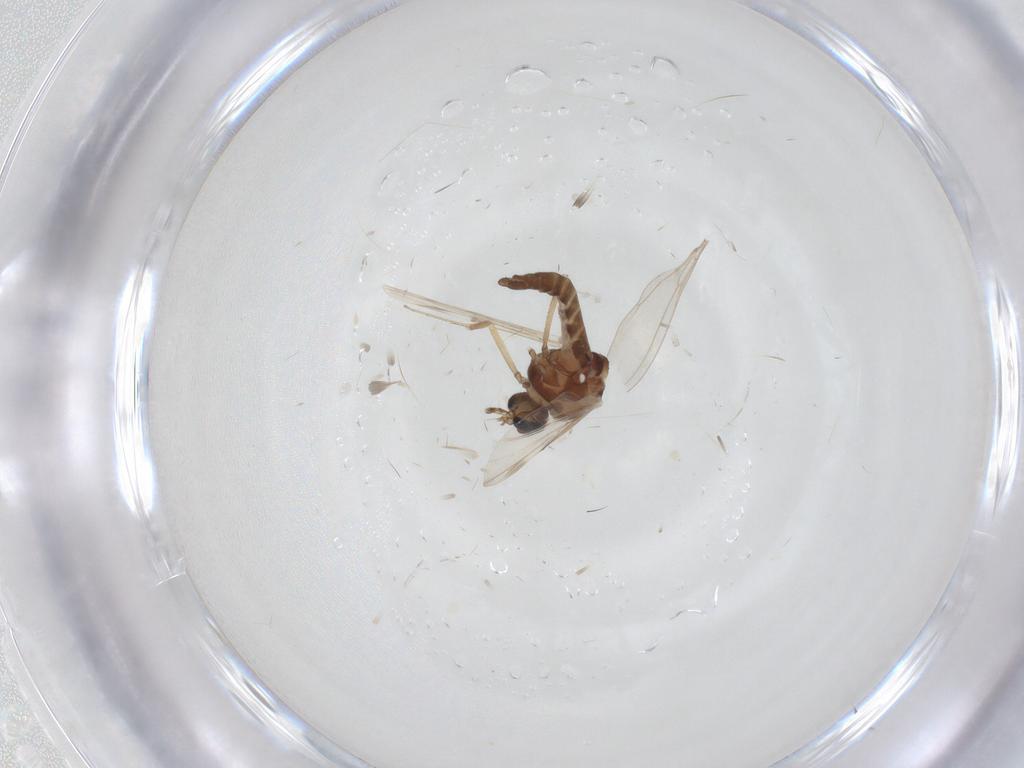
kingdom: Animalia
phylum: Arthropoda
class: Insecta
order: Diptera
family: Ceratopogonidae
